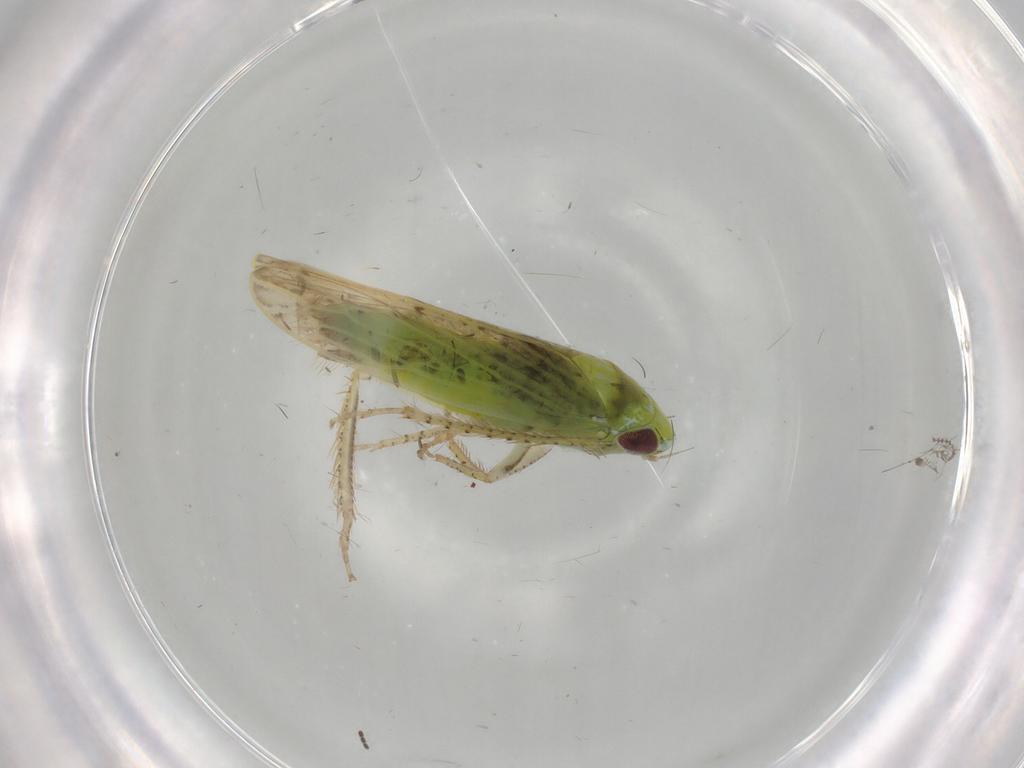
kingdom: Animalia
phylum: Arthropoda
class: Insecta
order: Hemiptera
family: Cicadellidae
